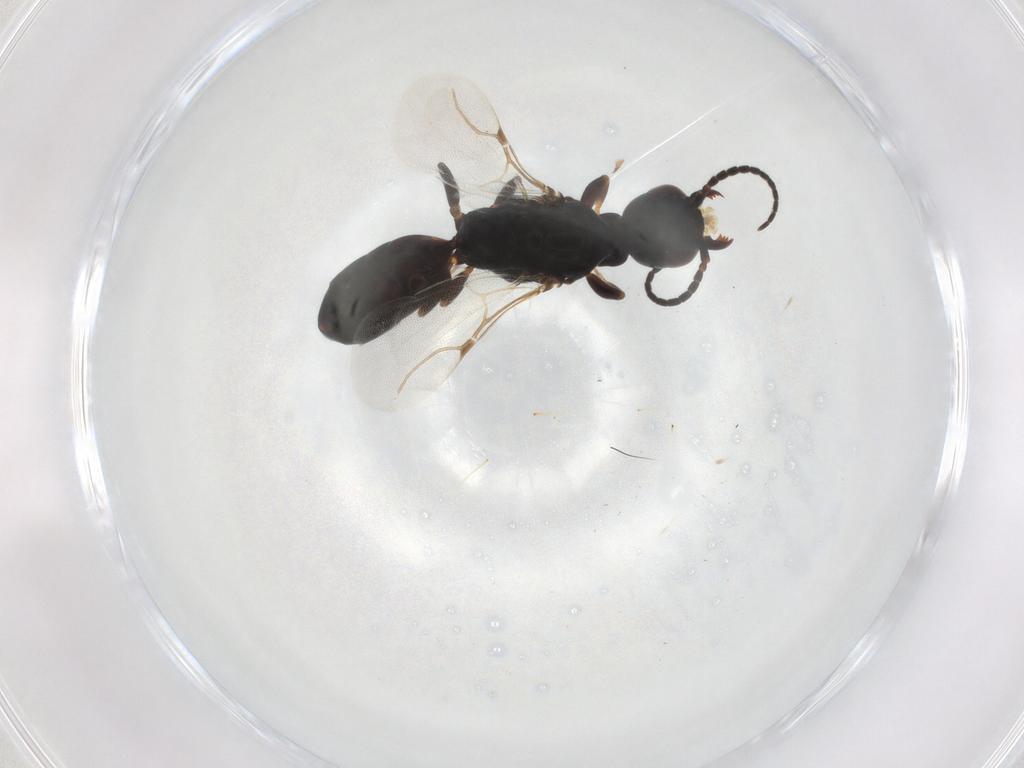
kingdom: Animalia
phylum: Arthropoda
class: Insecta
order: Hymenoptera
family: Bethylidae
